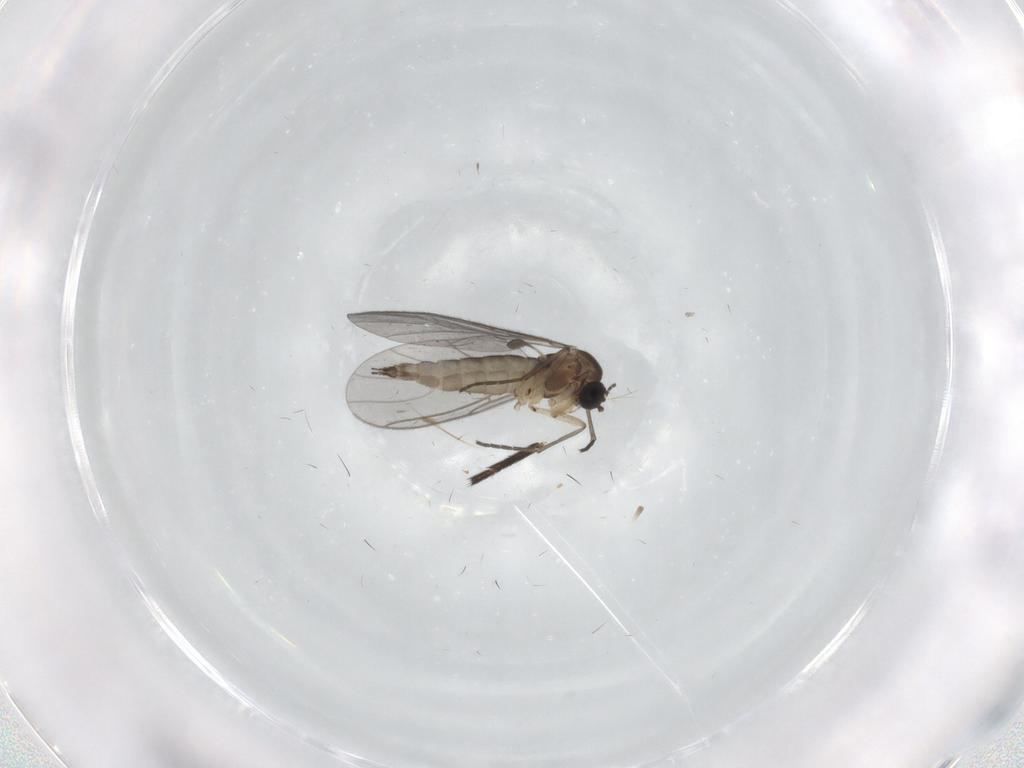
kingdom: Animalia
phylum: Arthropoda
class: Insecta
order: Diptera
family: Sciaridae
